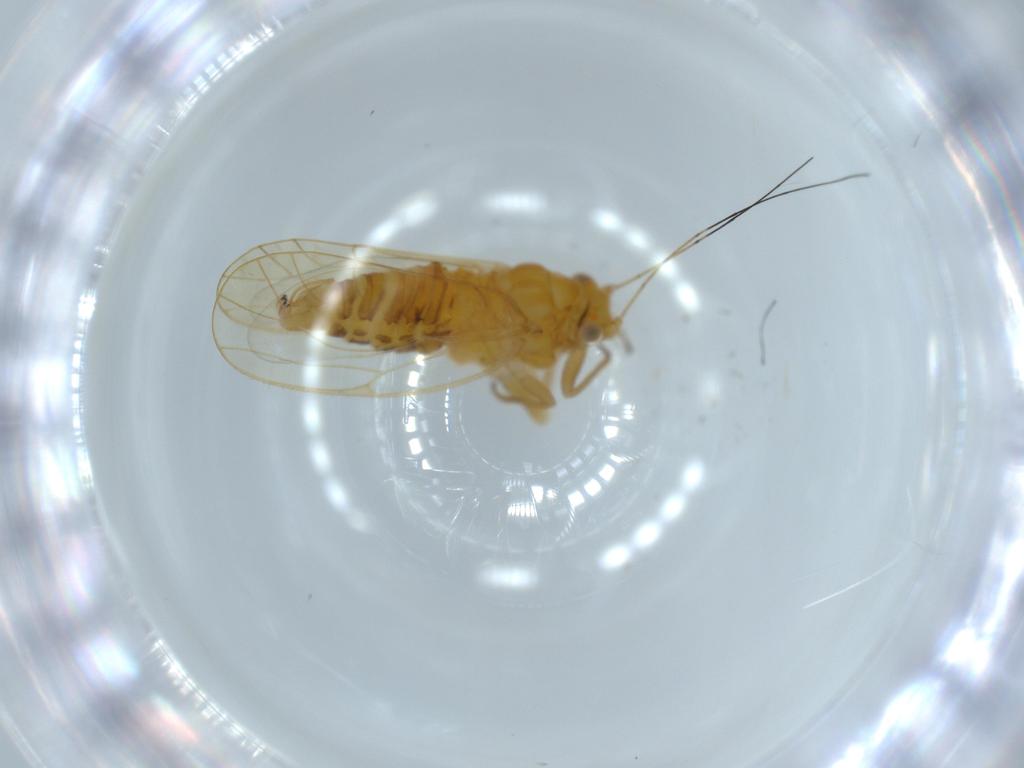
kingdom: Animalia
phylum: Arthropoda
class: Insecta
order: Hemiptera
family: Psyllidae
